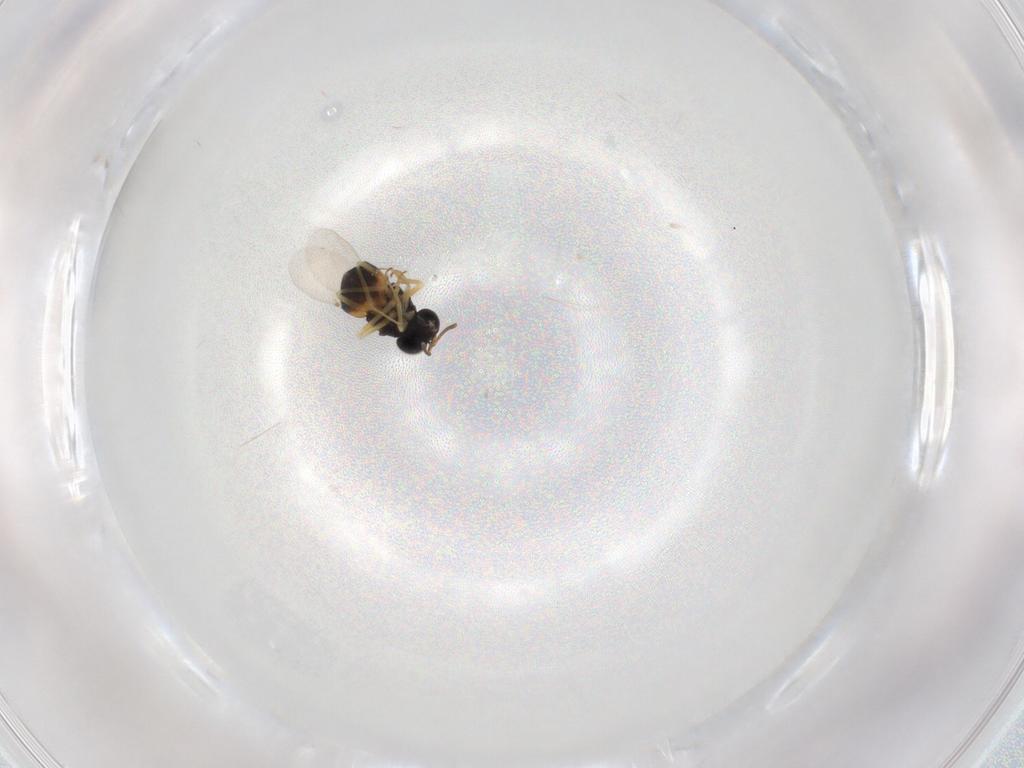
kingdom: Animalia
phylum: Arthropoda
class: Insecta
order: Hymenoptera
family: Encyrtidae
